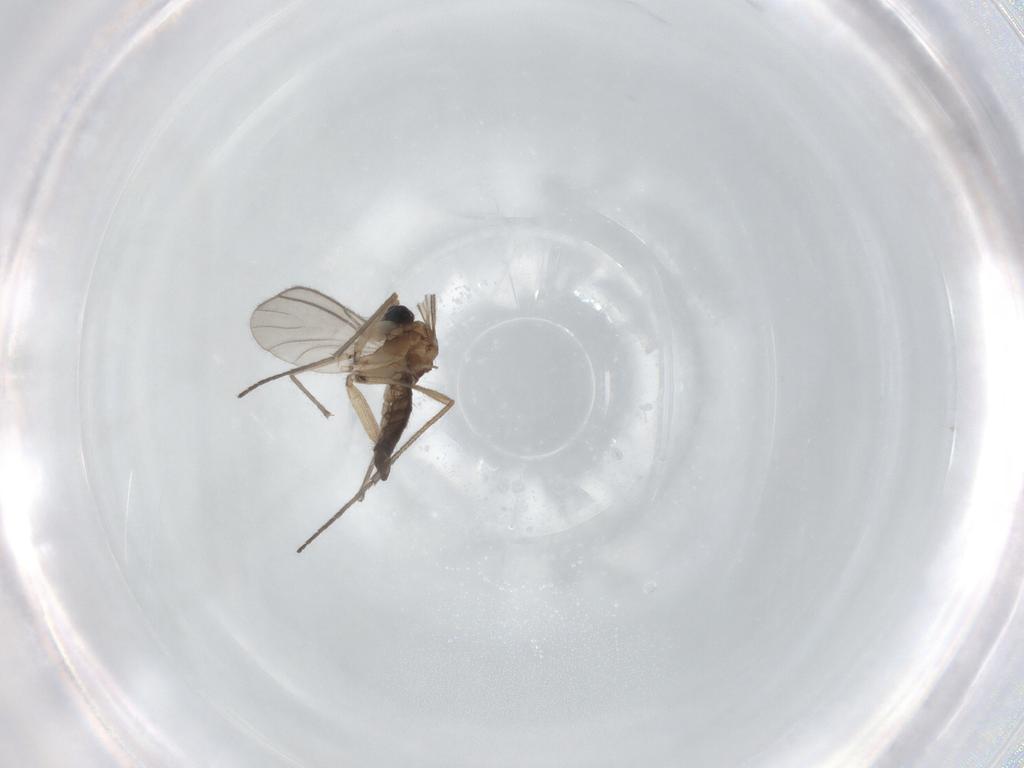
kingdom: Animalia
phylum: Arthropoda
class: Insecta
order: Diptera
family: Sciaridae
